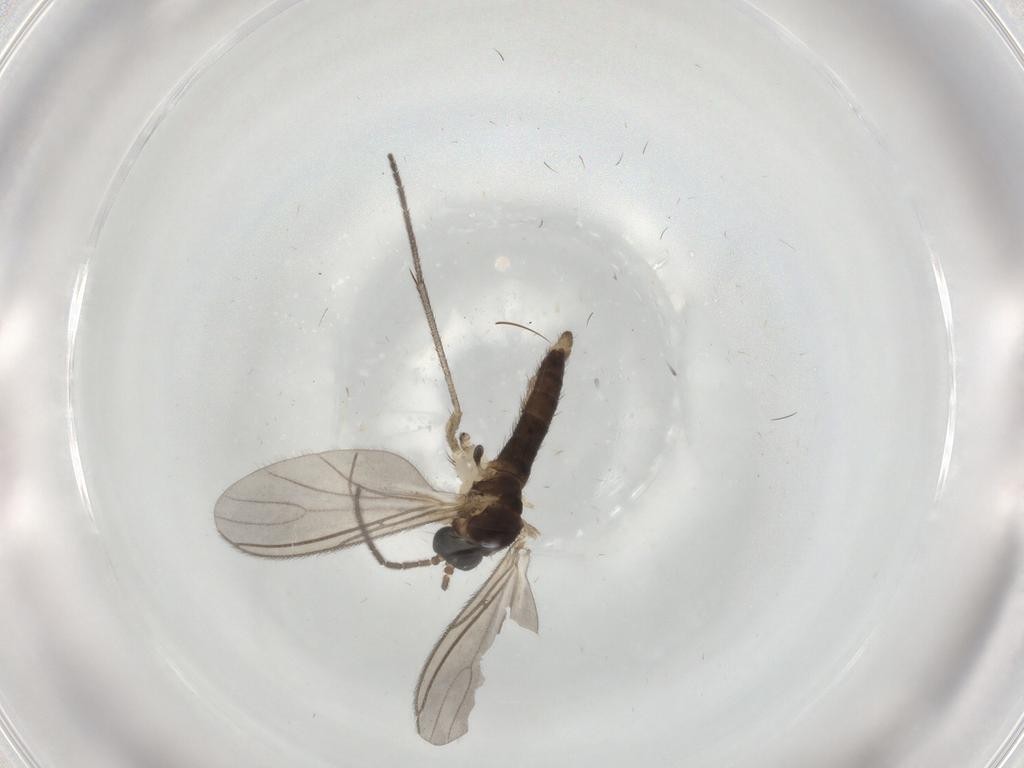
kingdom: Animalia
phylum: Arthropoda
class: Insecta
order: Diptera
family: Sciaridae
